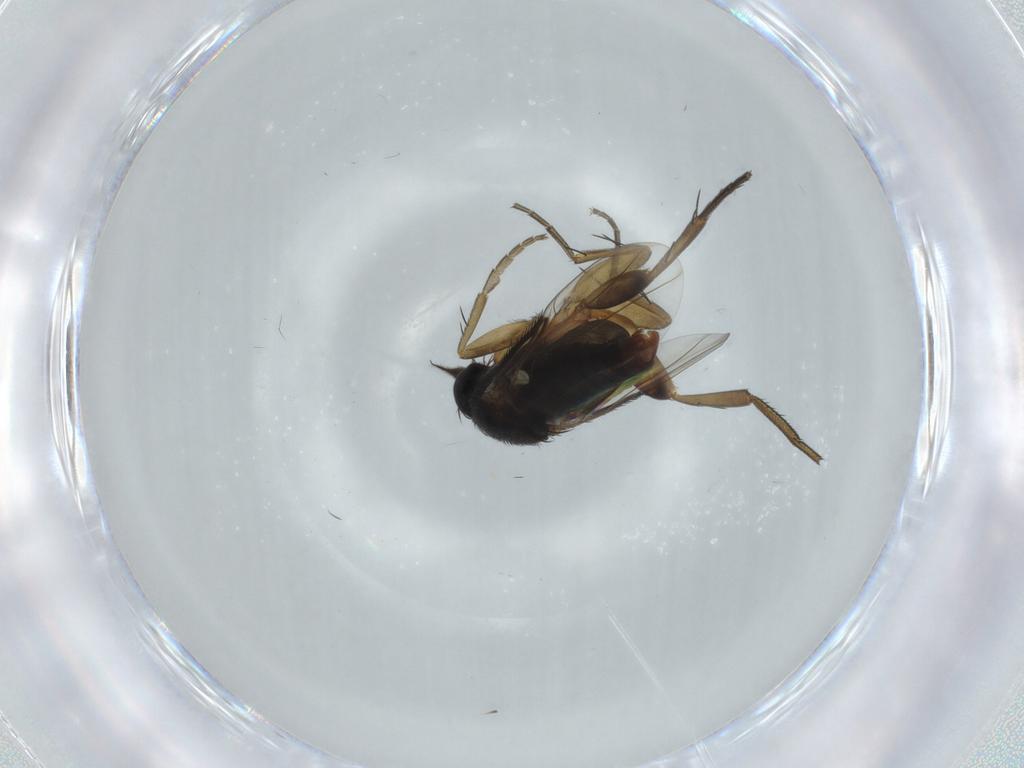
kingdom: Animalia
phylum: Arthropoda
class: Insecta
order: Diptera
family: Phoridae
